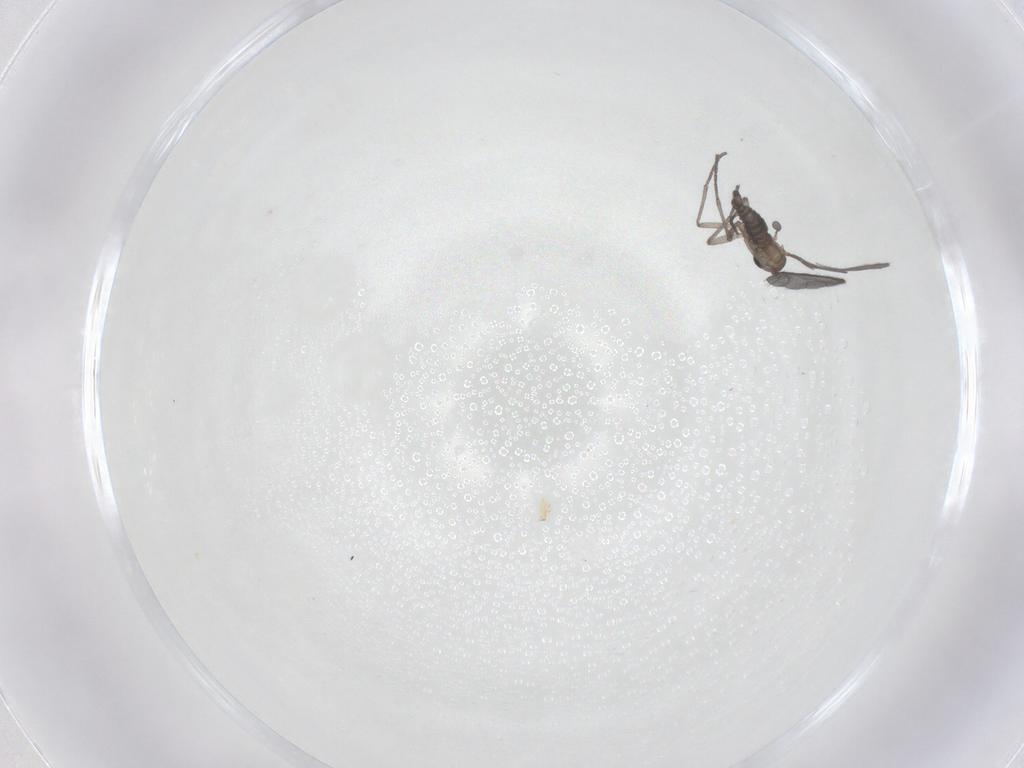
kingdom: Animalia
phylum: Arthropoda
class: Insecta
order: Diptera
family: Sciaridae
